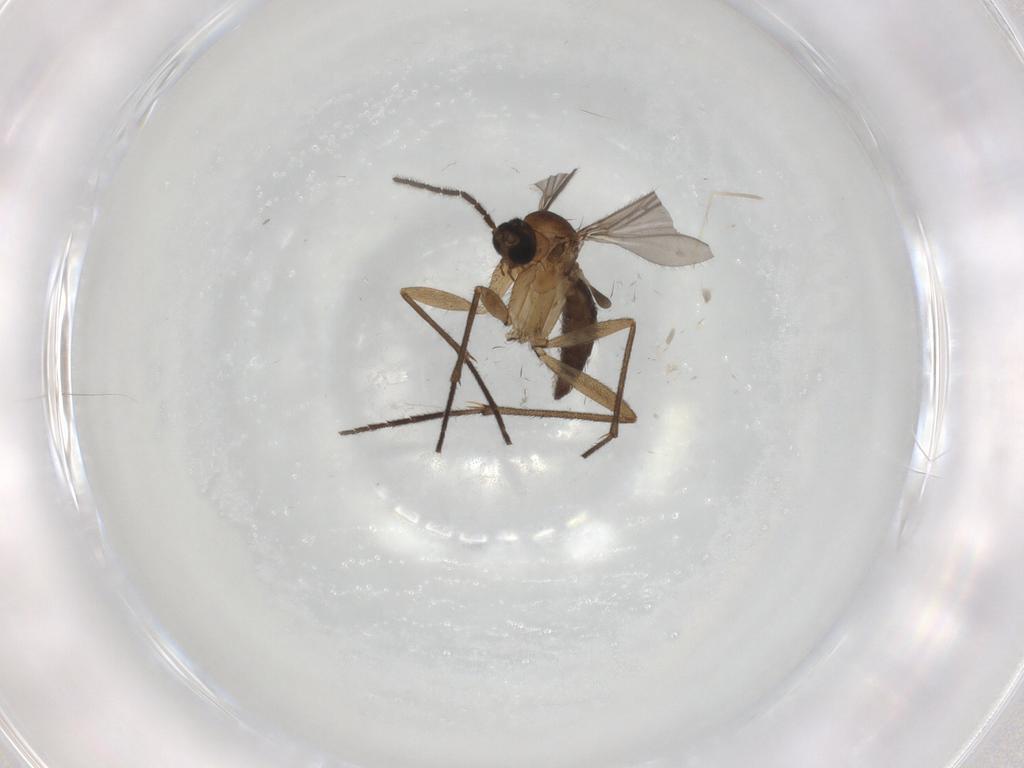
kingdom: Animalia
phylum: Arthropoda
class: Insecta
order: Diptera
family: Cecidomyiidae
